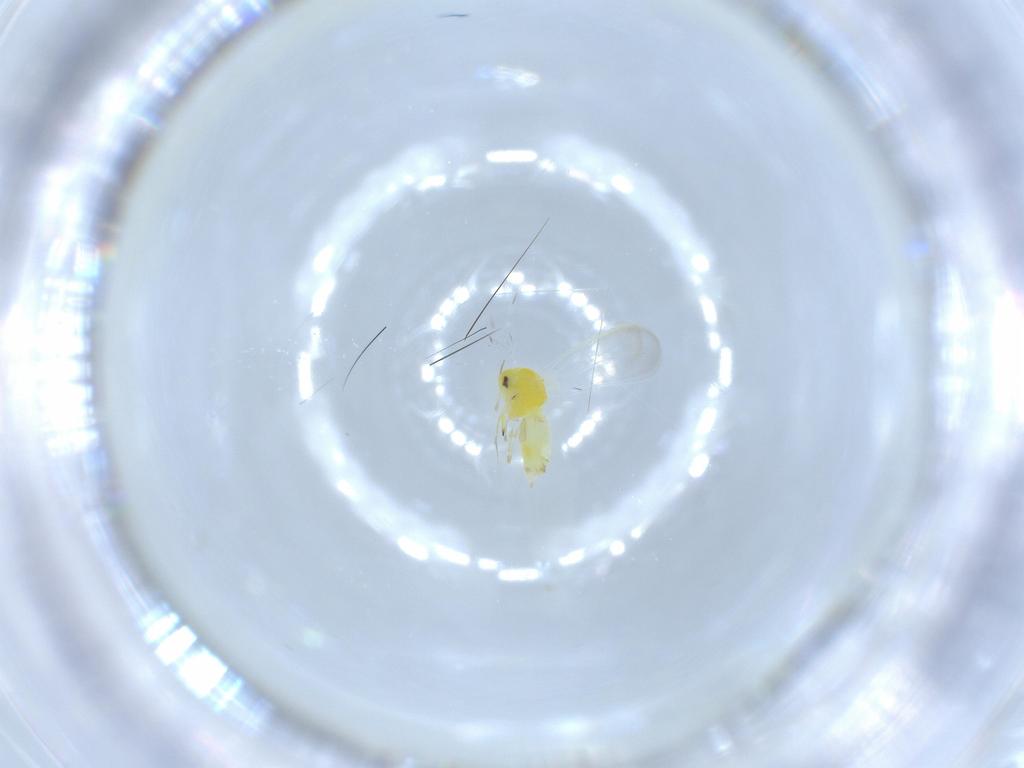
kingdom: Animalia
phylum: Arthropoda
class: Insecta
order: Hemiptera
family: Aleyrodidae
